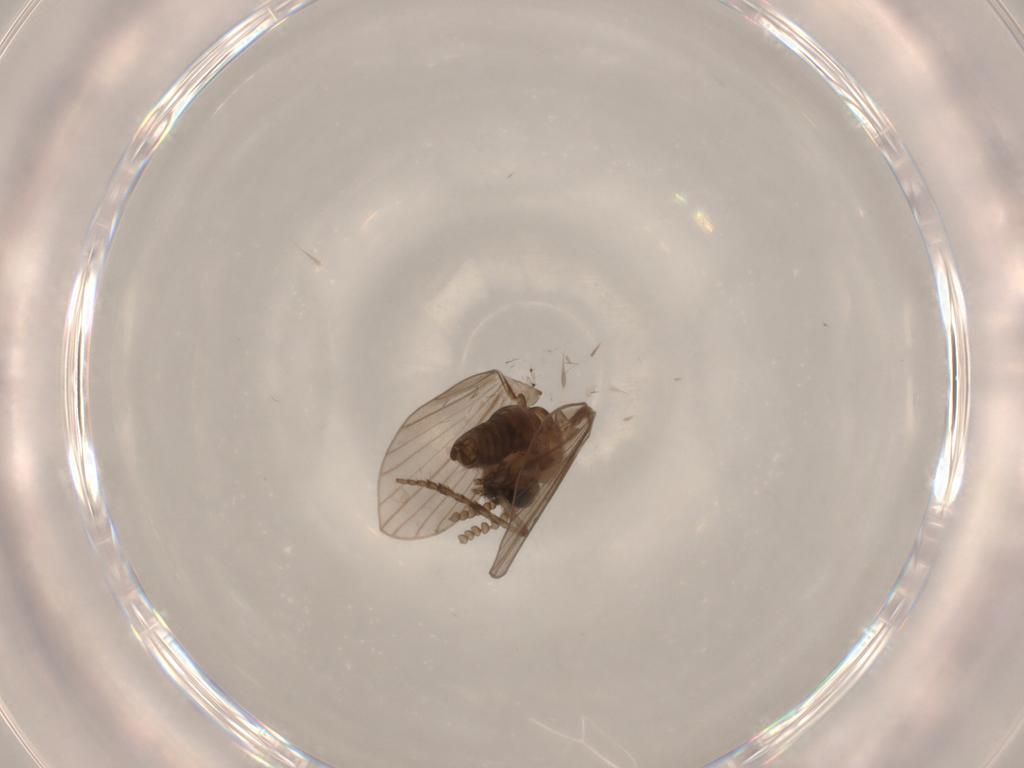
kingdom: Animalia
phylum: Arthropoda
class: Insecta
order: Diptera
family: Psychodidae
